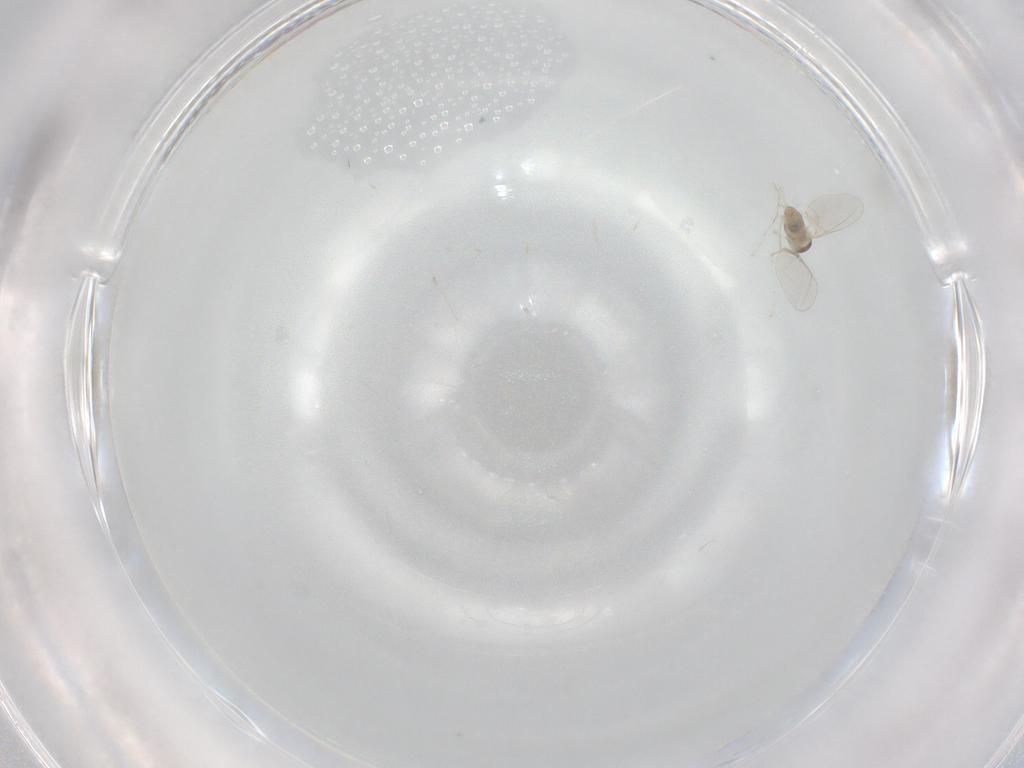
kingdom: Animalia
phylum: Arthropoda
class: Insecta
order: Diptera
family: Cecidomyiidae
